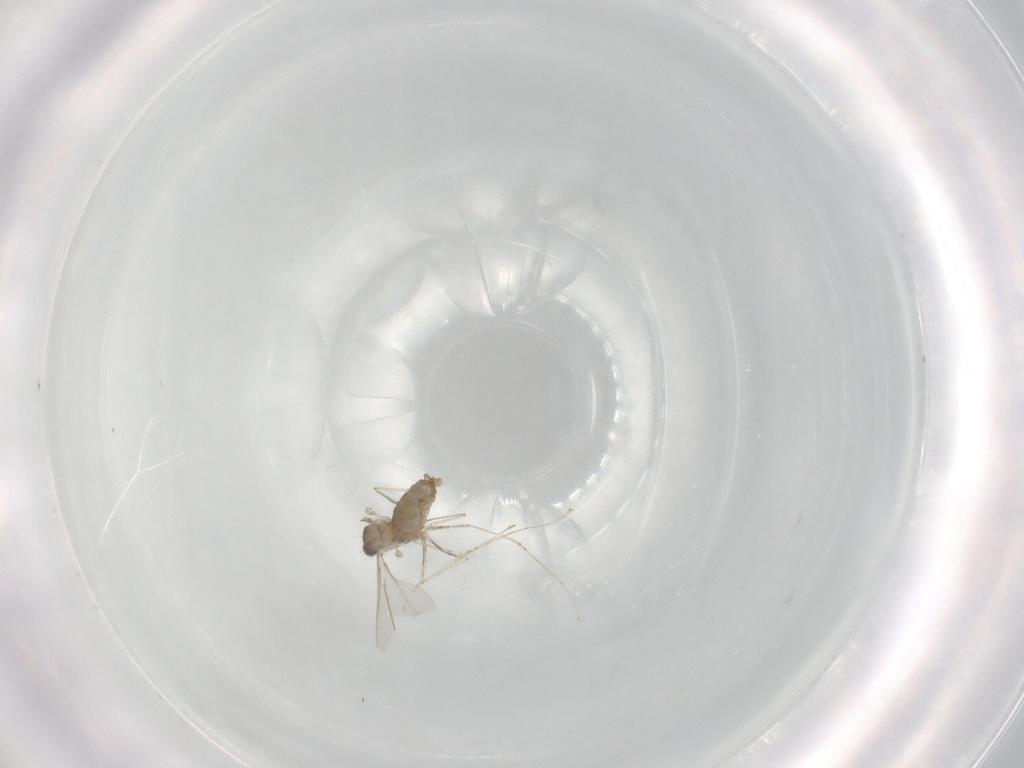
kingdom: Animalia
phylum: Arthropoda
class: Insecta
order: Diptera
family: Cecidomyiidae
